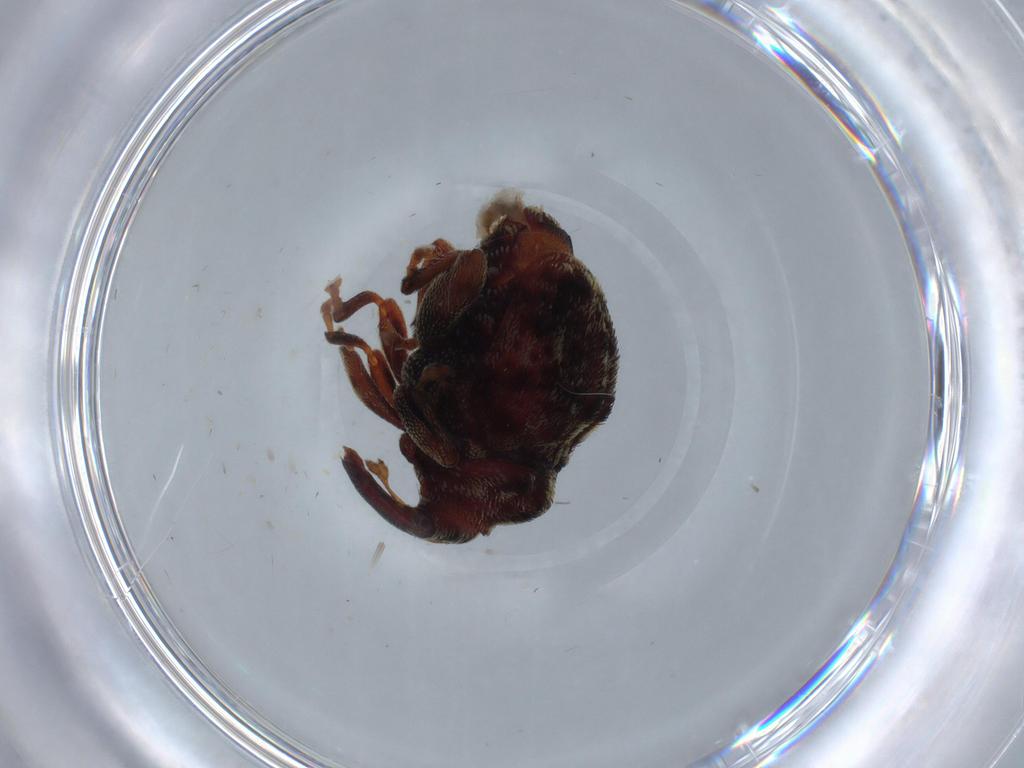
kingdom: Animalia
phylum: Arthropoda
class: Insecta
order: Coleoptera
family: Curculionidae
